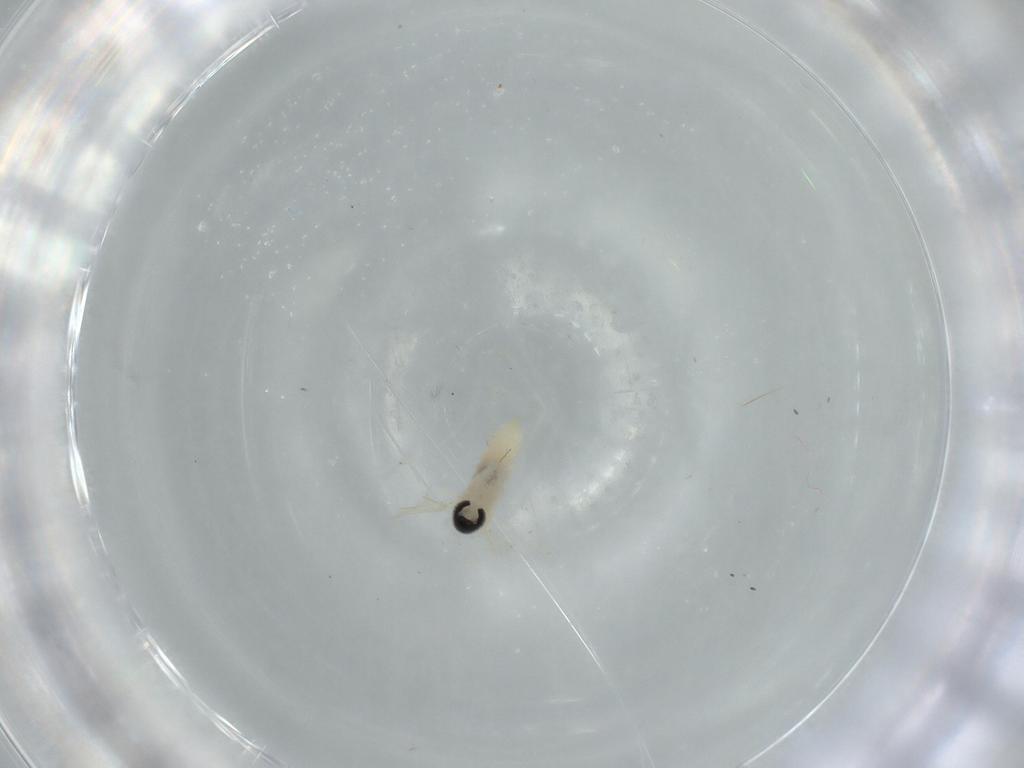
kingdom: Animalia
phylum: Arthropoda
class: Insecta
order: Diptera
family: Cecidomyiidae
